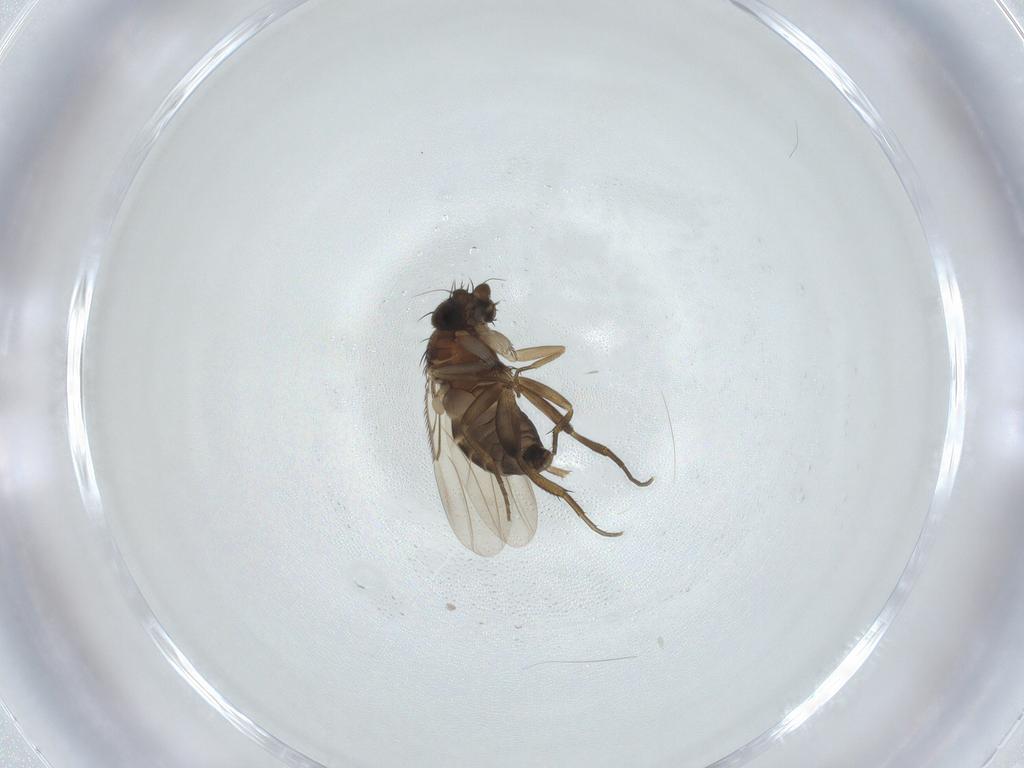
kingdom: Animalia
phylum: Arthropoda
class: Insecta
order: Diptera
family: Phoridae
